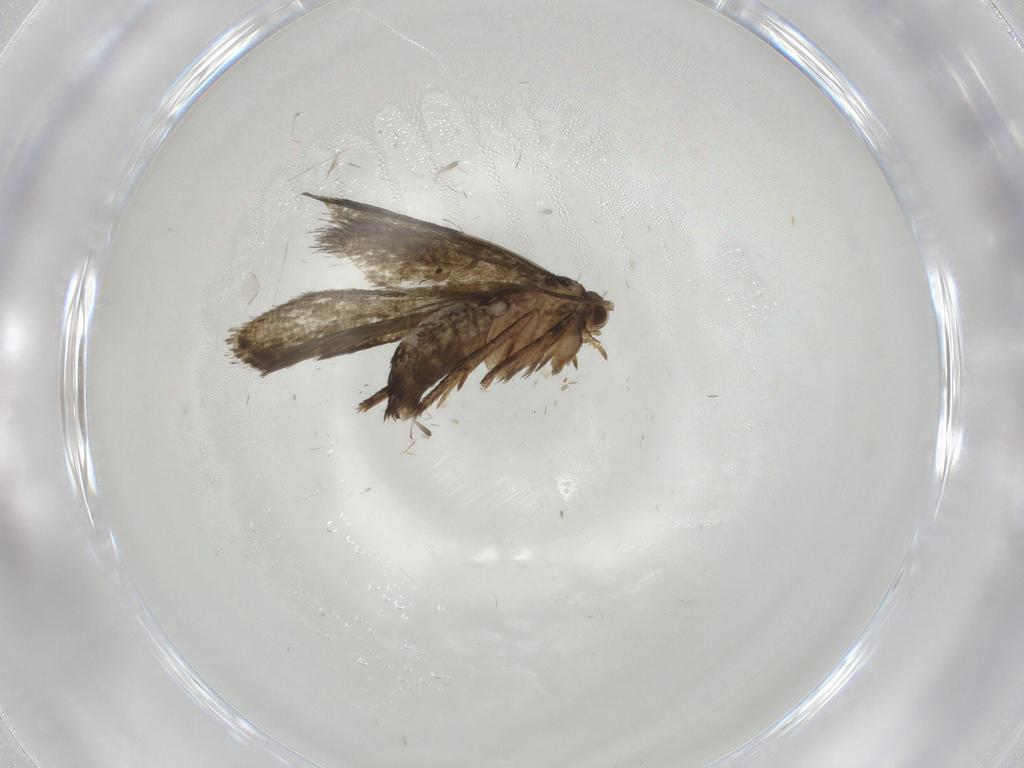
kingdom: Animalia
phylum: Arthropoda
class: Insecta
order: Lepidoptera
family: Tineidae
